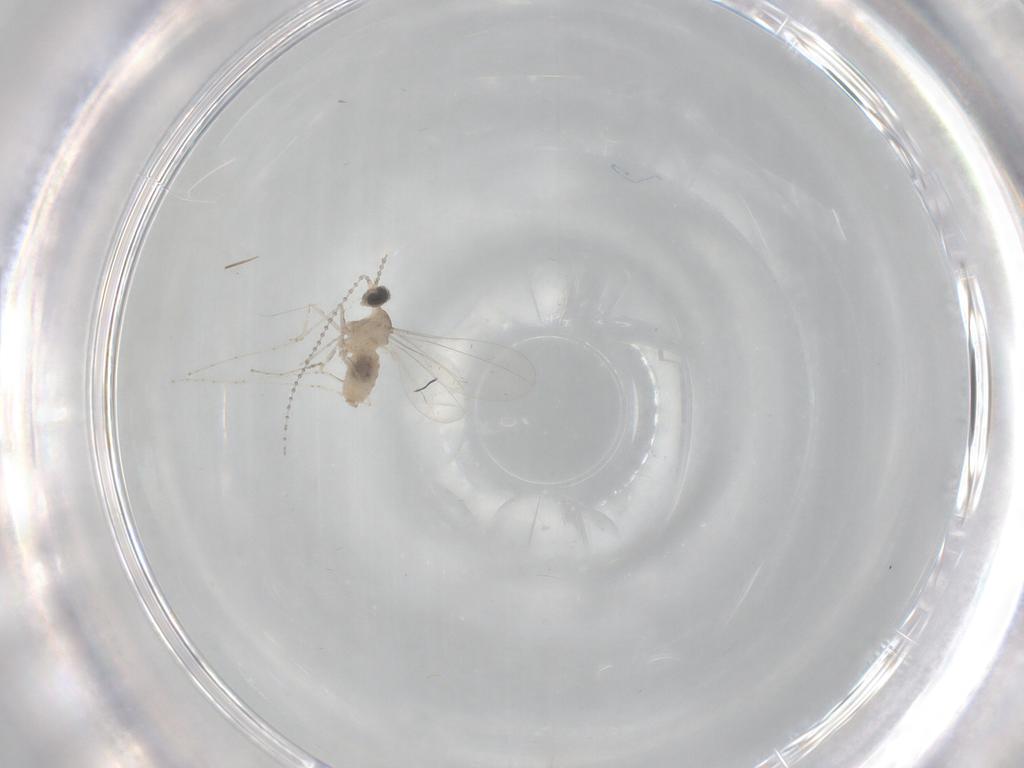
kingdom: Animalia
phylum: Arthropoda
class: Insecta
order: Diptera
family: Cecidomyiidae
